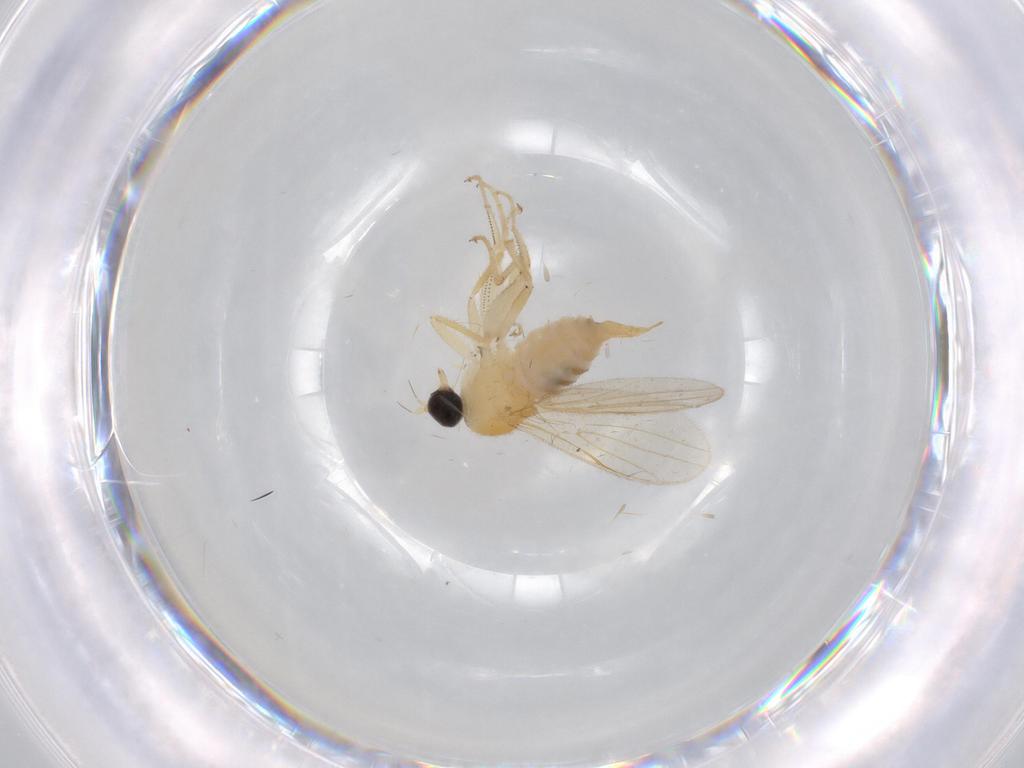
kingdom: Animalia
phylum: Arthropoda
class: Insecta
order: Diptera
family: Sciaridae
